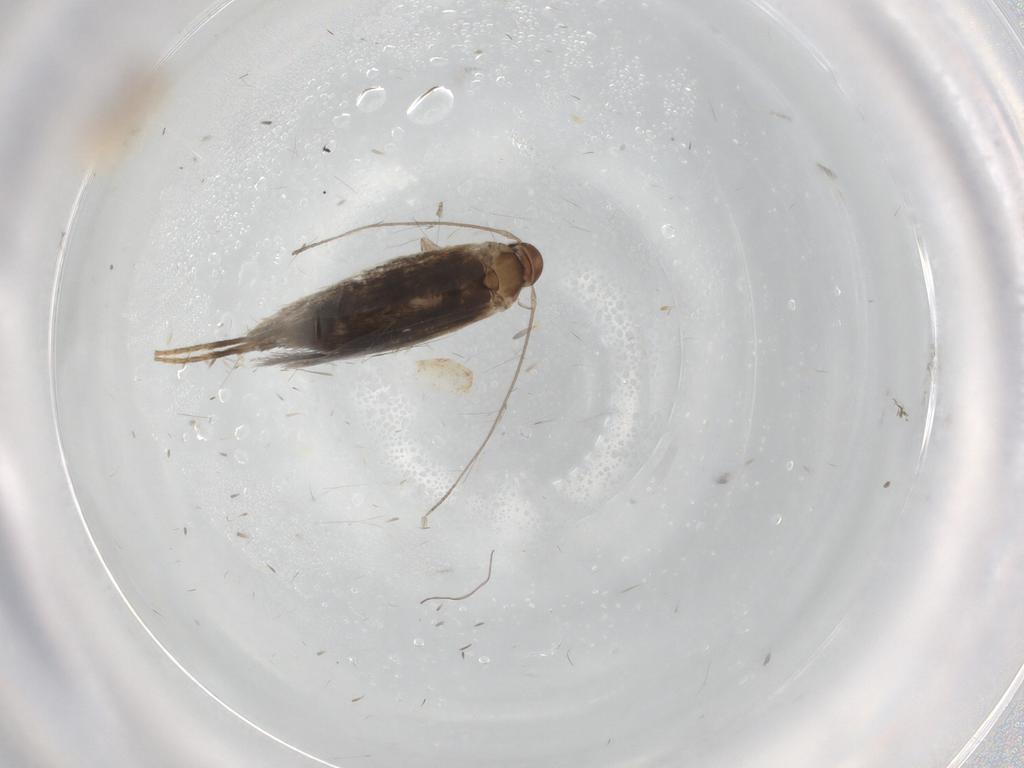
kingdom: Animalia
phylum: Arthropoda
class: Insecta
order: Lepidoptera
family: Elachistidae
